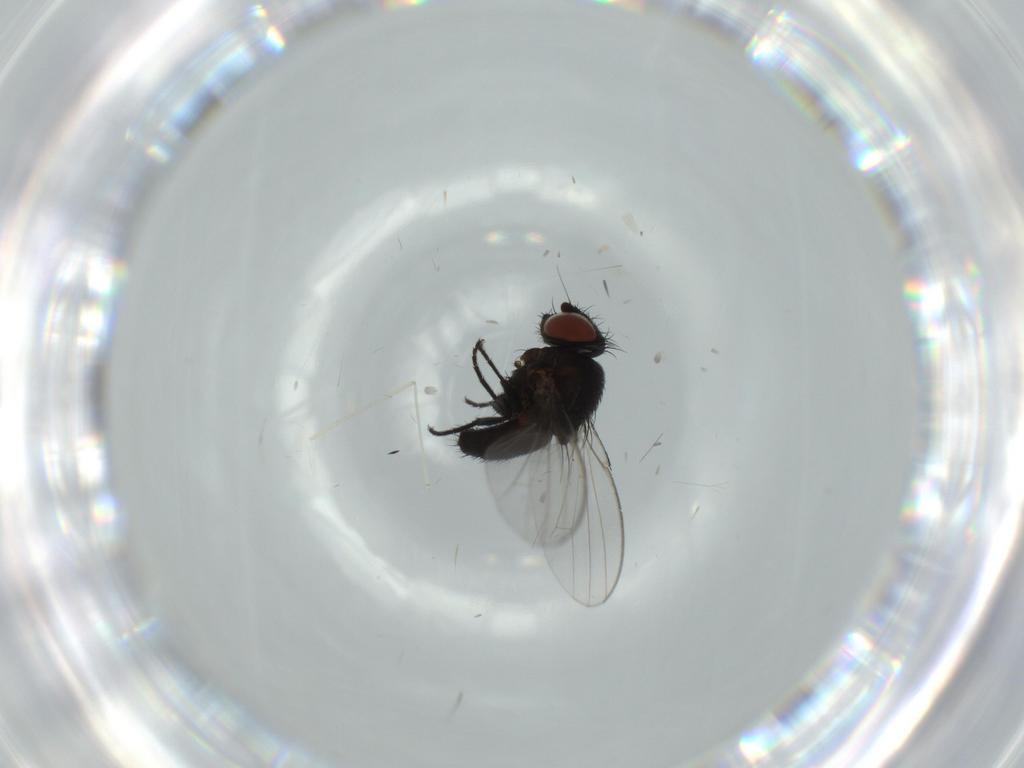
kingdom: Animalia
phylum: Arthropoda
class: Insecta
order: Diptera
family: Milichiidae
